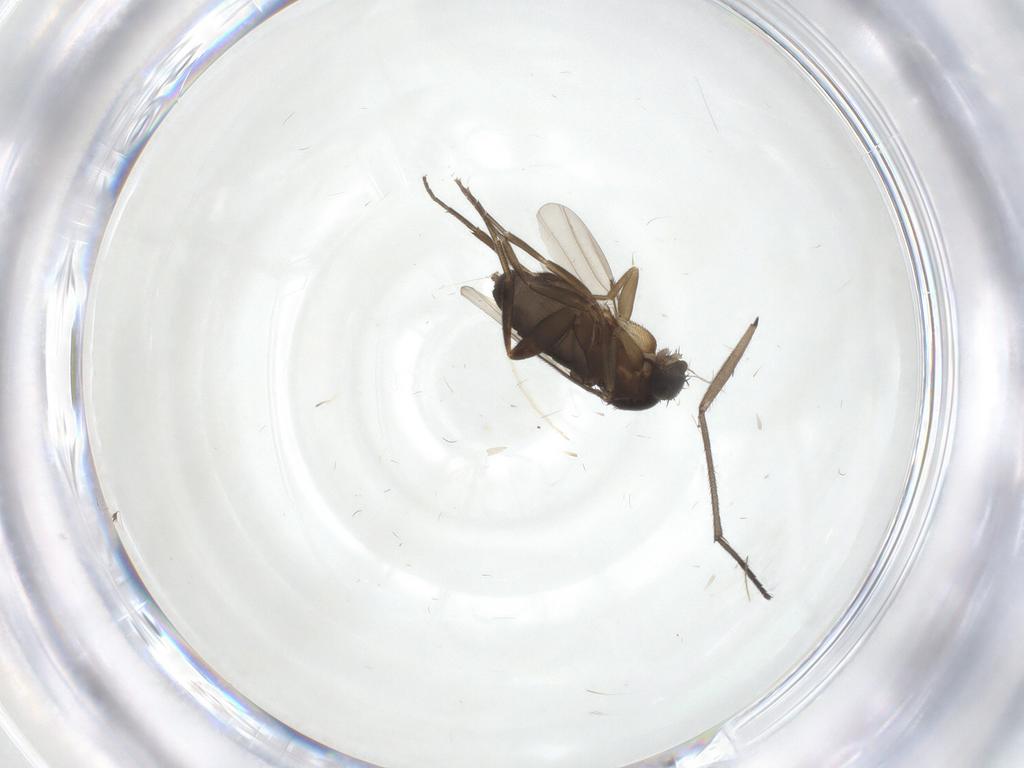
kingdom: Animalia
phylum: Arthropoda
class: Insecta
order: Diptera
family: Phoridae
